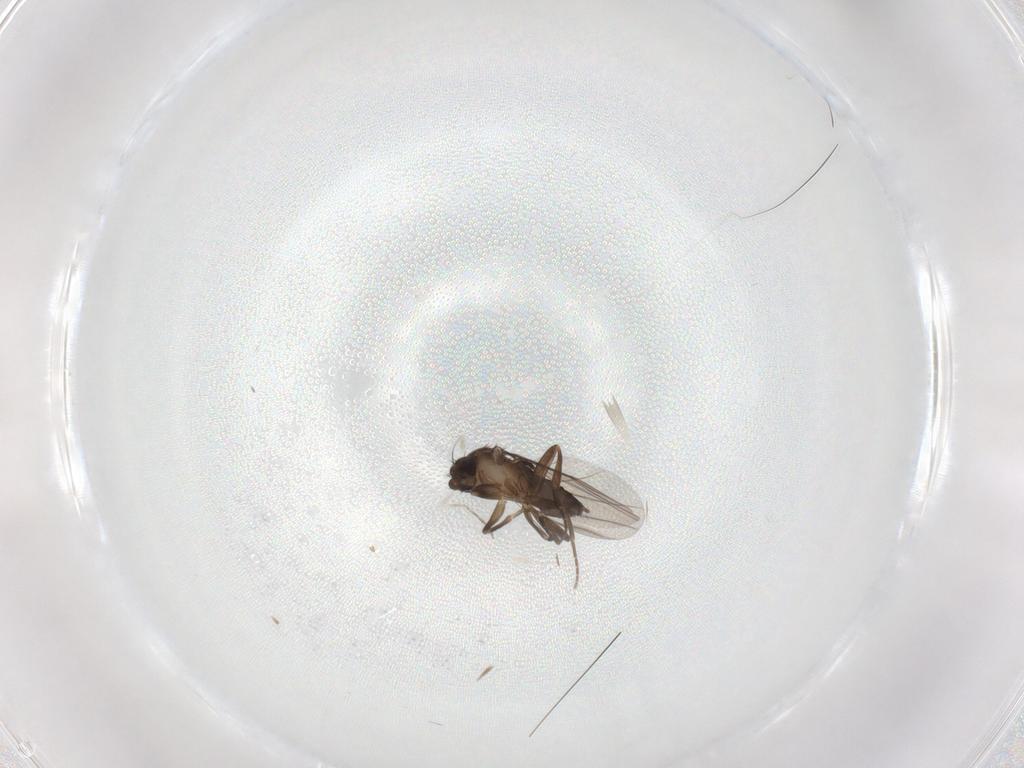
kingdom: Animalia
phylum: Arthropoda
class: Insecta
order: Diptera
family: Phoridae
